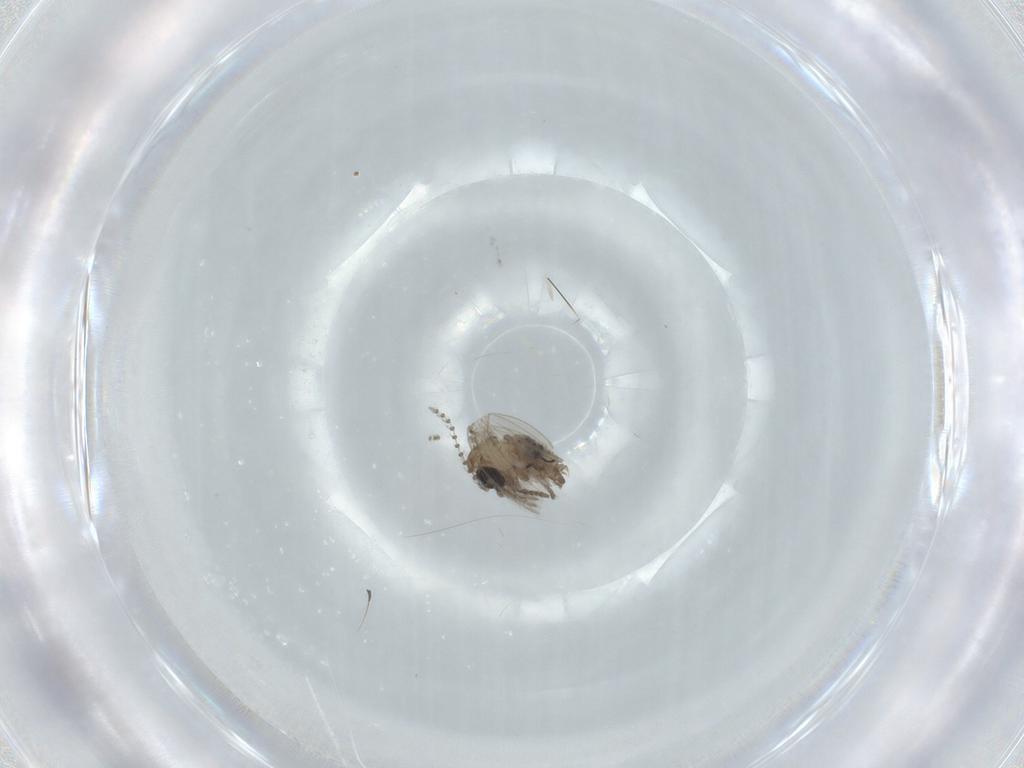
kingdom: Animalia
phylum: Arthropoda
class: Insecta
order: Diptera
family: Psychodidae
